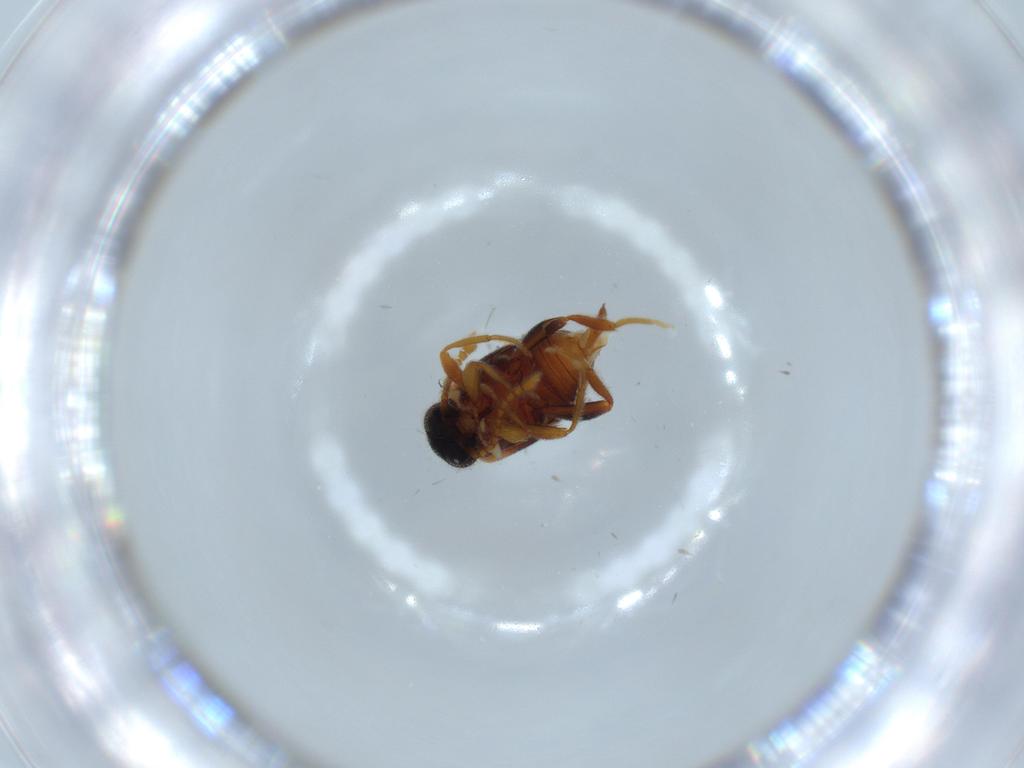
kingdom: Animalia
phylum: Arthropoda
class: Insecta
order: Coleoptera
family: Aderidae
